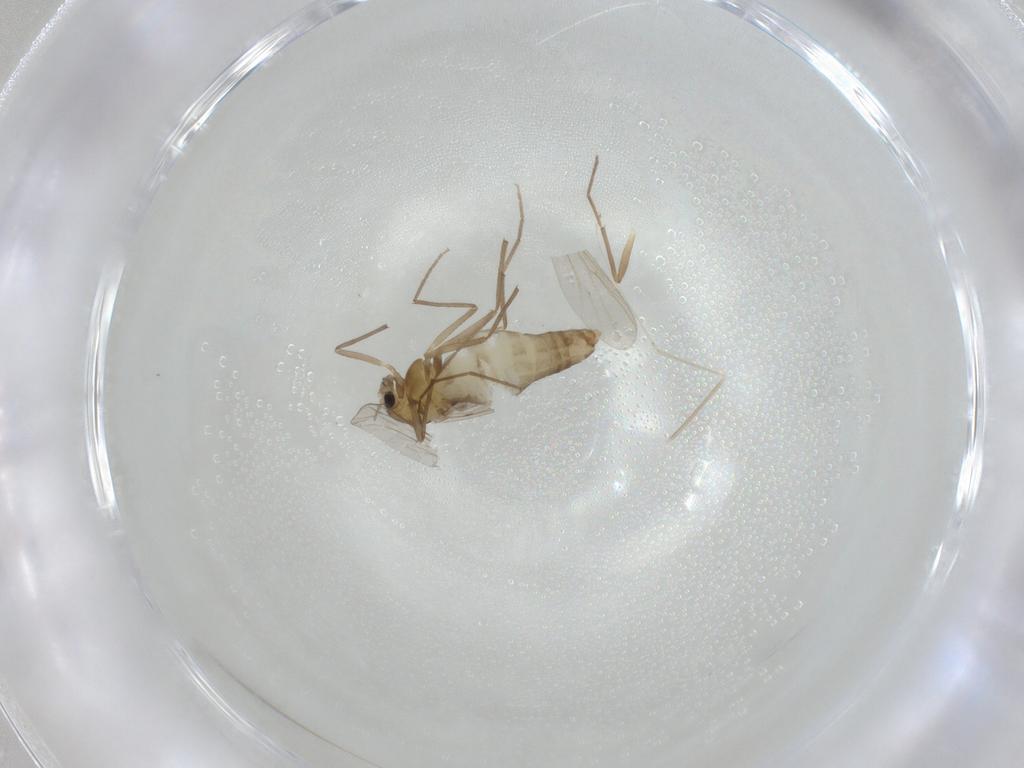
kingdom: Animalia
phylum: Arthropoda
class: Insecta
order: Diptera
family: Chironomidae
